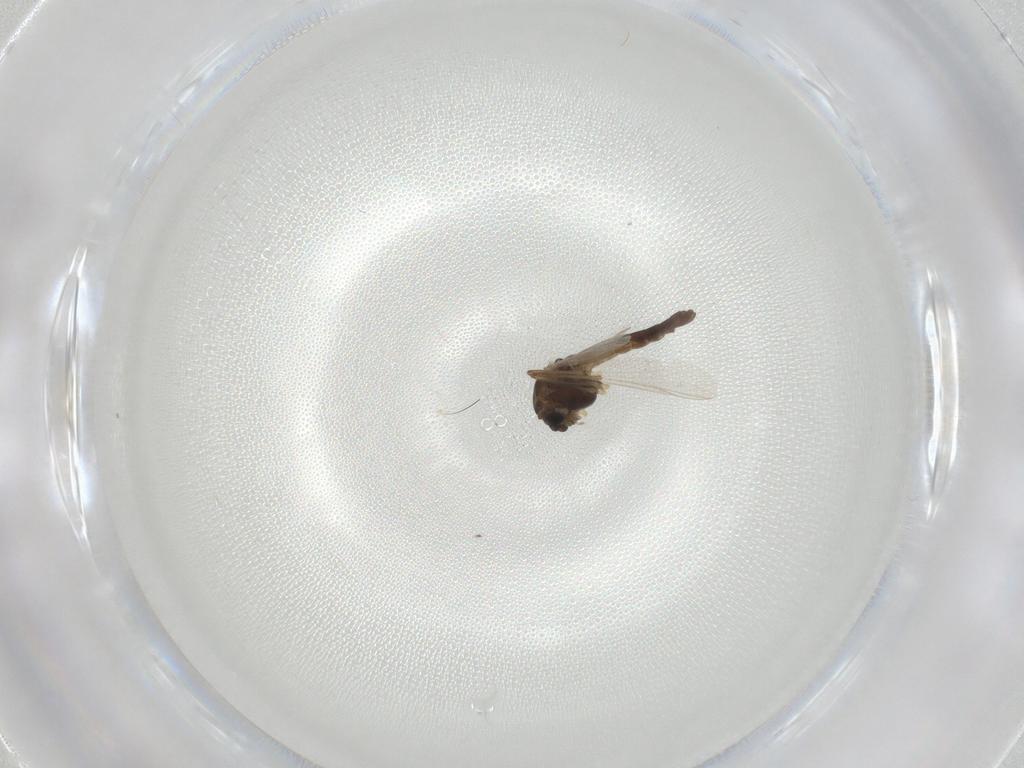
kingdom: Animalia
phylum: Arthropoda
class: Insecta
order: Diptera
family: Chironomidae
